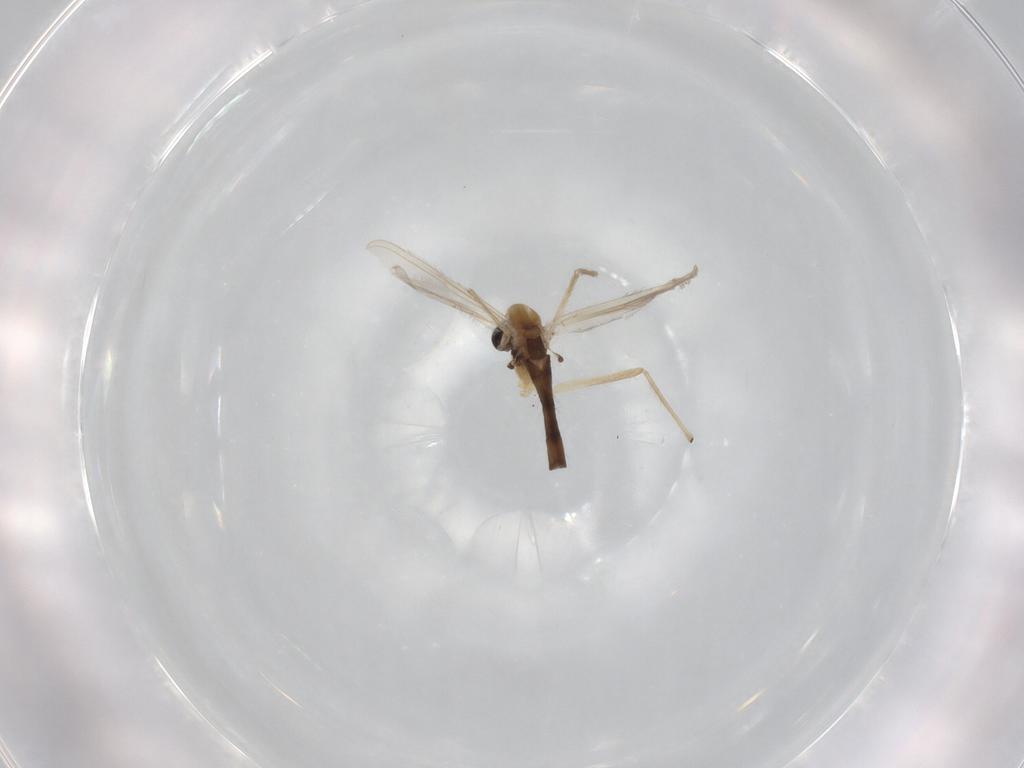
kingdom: Animalia
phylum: Arthropoda
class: Insecta
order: Diptera
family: Chironomidae
